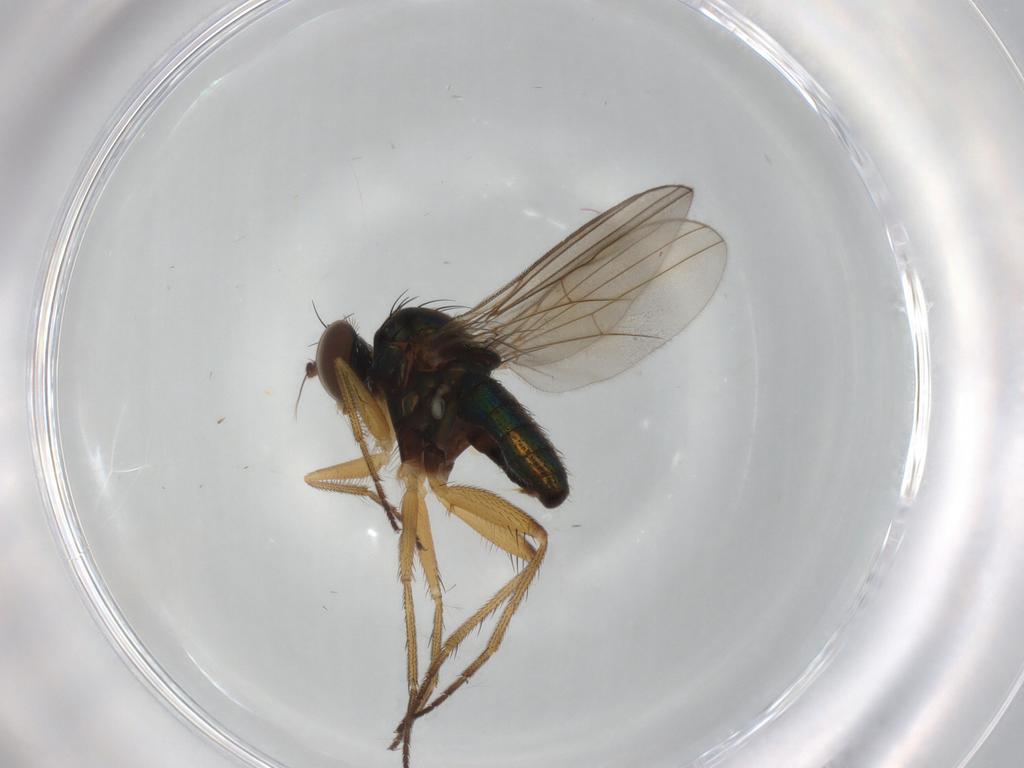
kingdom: Animalia
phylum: Arthropoda
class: Insecta
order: Diptera
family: Dolichopodidae
